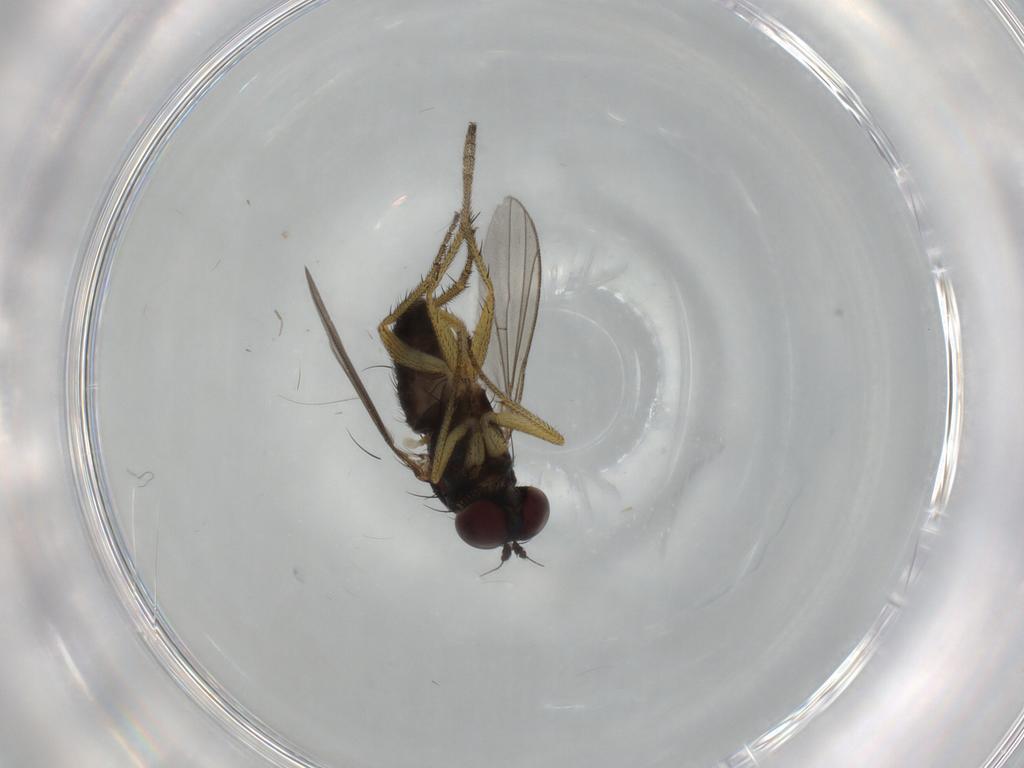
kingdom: Animalia
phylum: Arthropoda
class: Insecta
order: Diptera
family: Dolichopodidae
